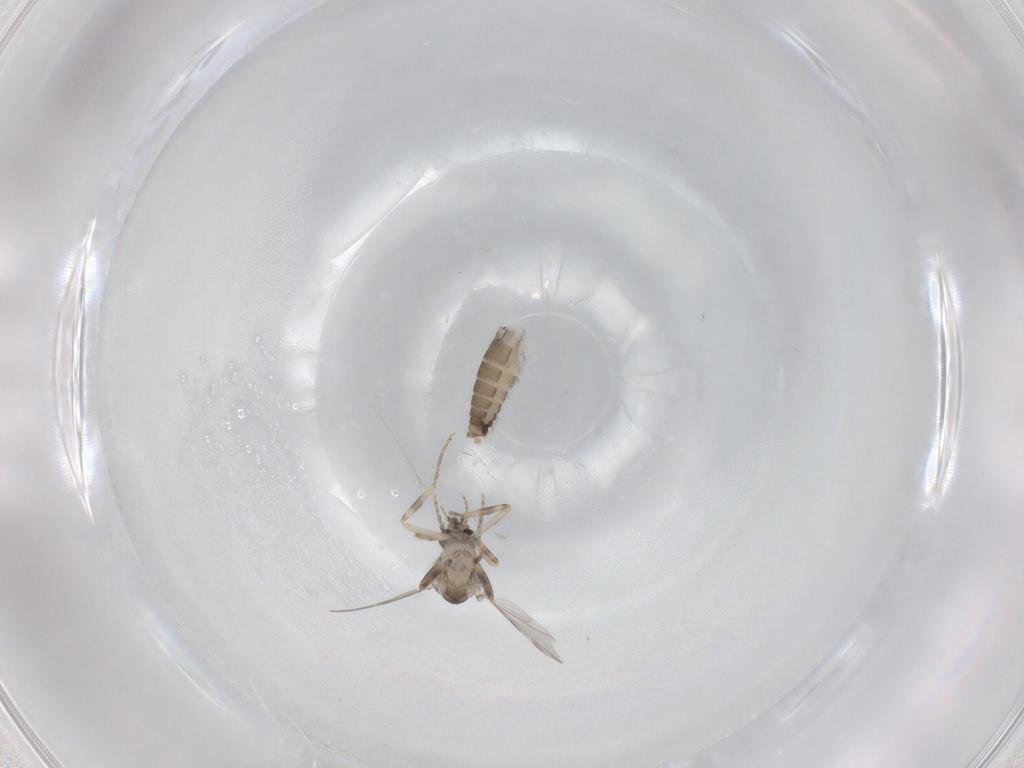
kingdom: Animalia
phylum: Arthropoda
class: Insecta
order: Diptera
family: Ceratopogonidae
